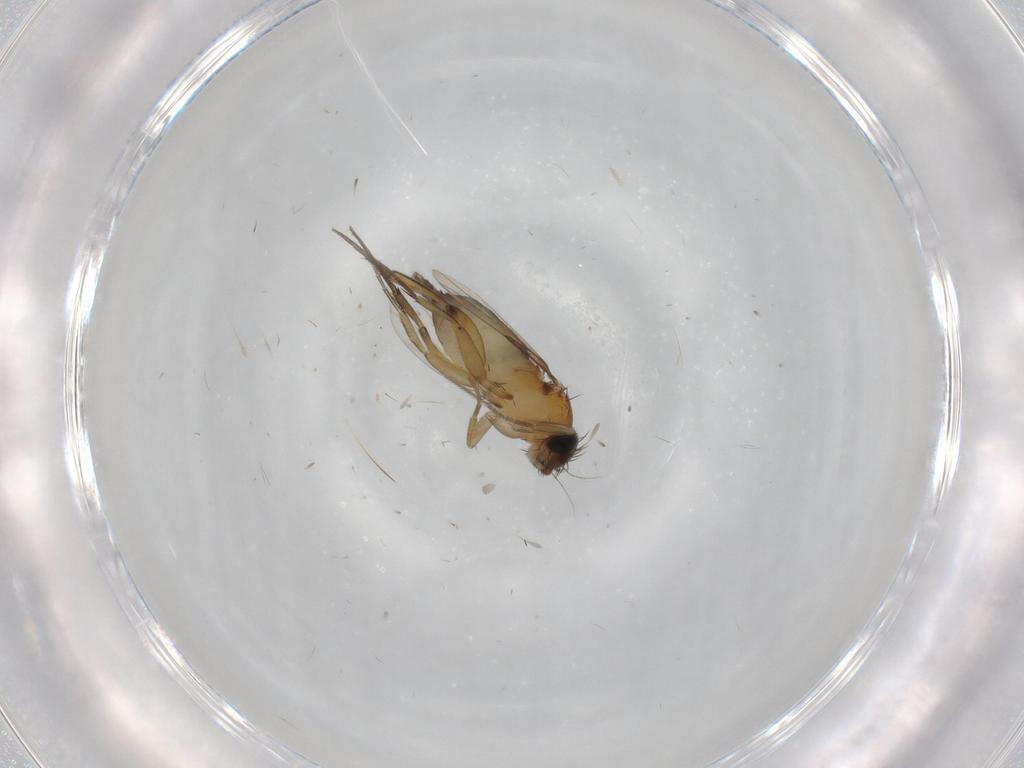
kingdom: Animalia
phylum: Arthropoda
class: Insecta
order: Diptera
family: Phoridae
